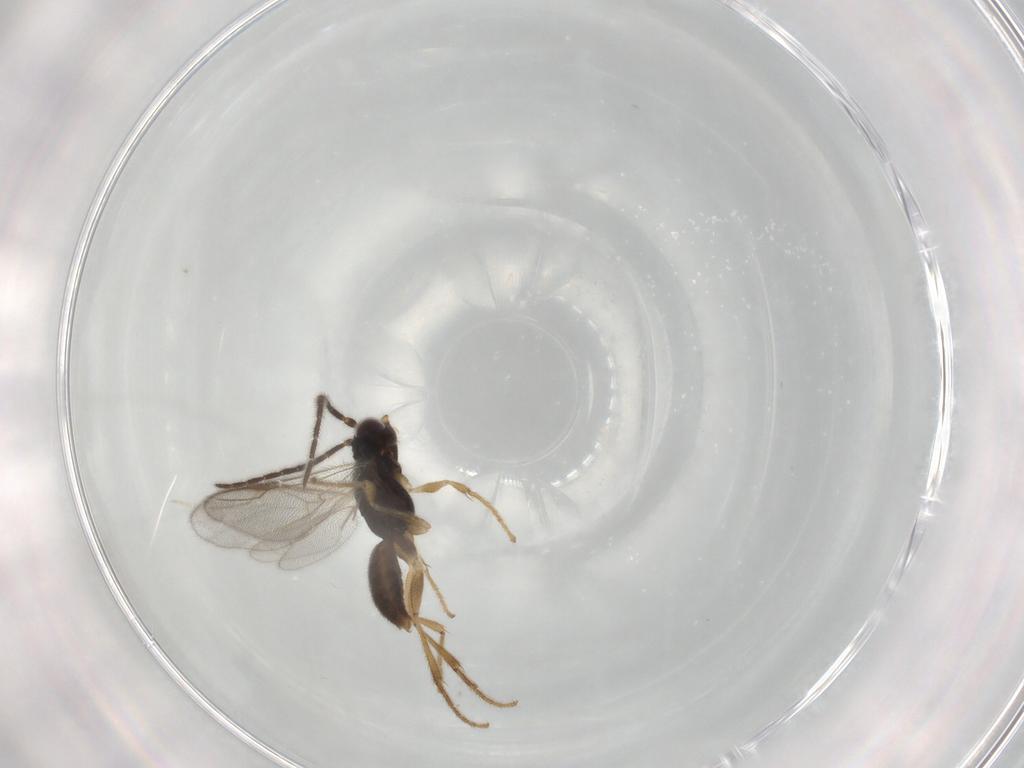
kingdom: Animalia
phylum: Arthropoda
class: Insecta
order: Hymenoptera
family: Dryinidae
